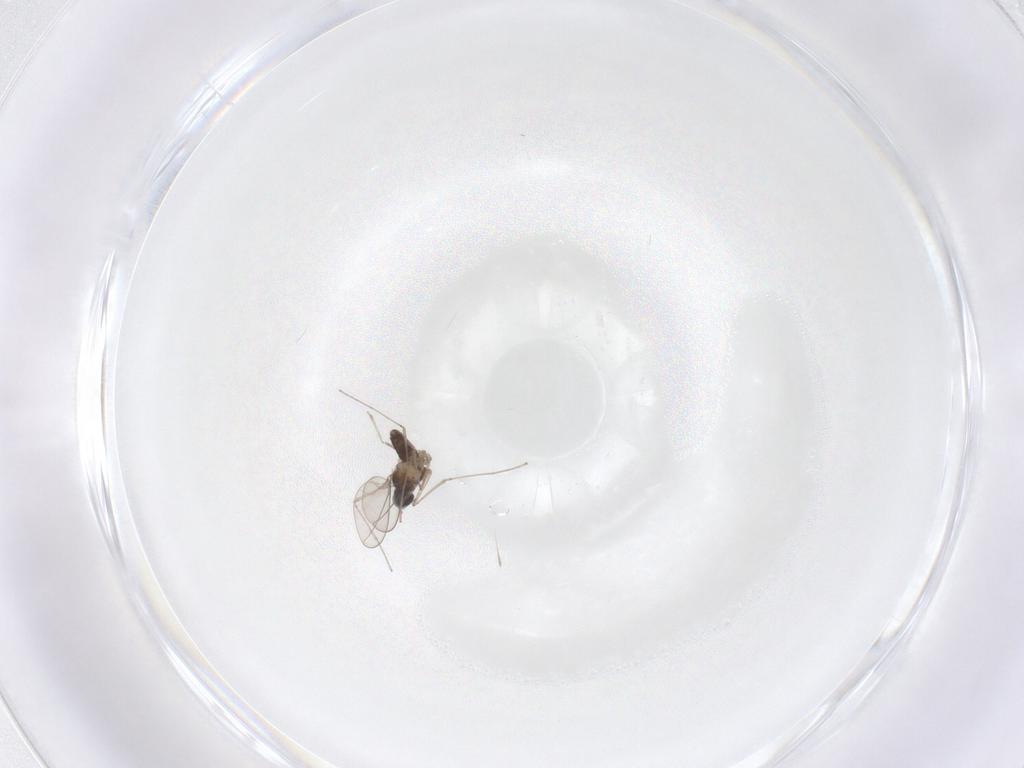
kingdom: Animalia
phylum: Arthropoda
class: Insecta
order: Diptera
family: Cecidomyiidae
